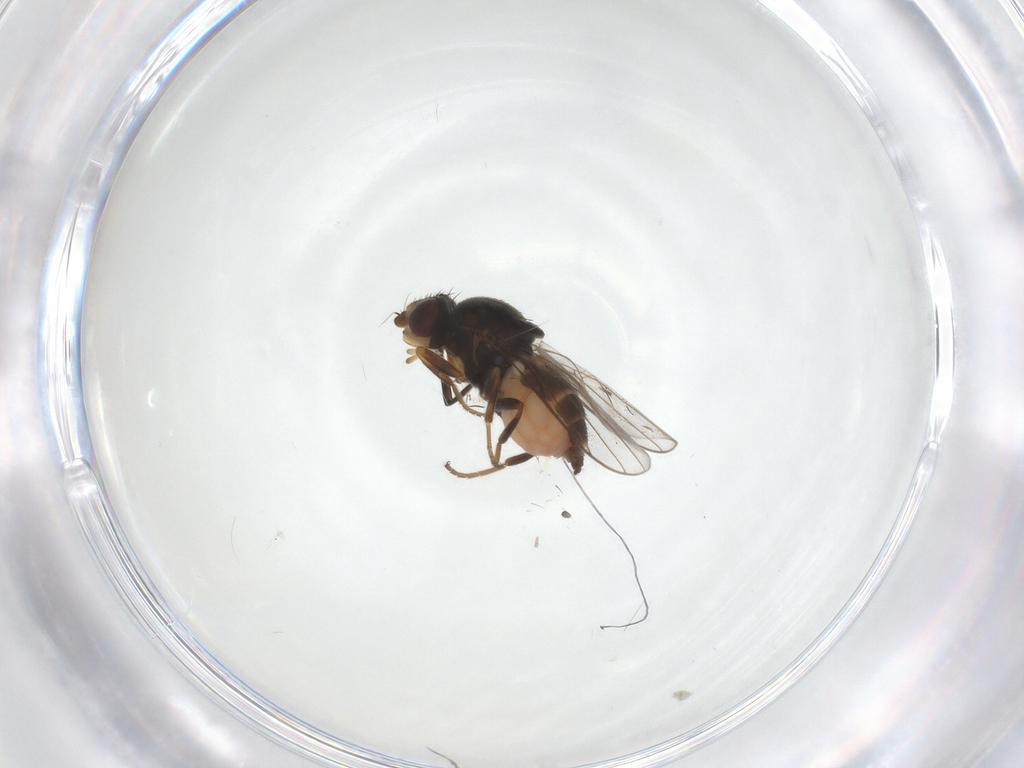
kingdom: Animalia
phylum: Arthropoda
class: Insecta
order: Diptera
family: Chloropidae
